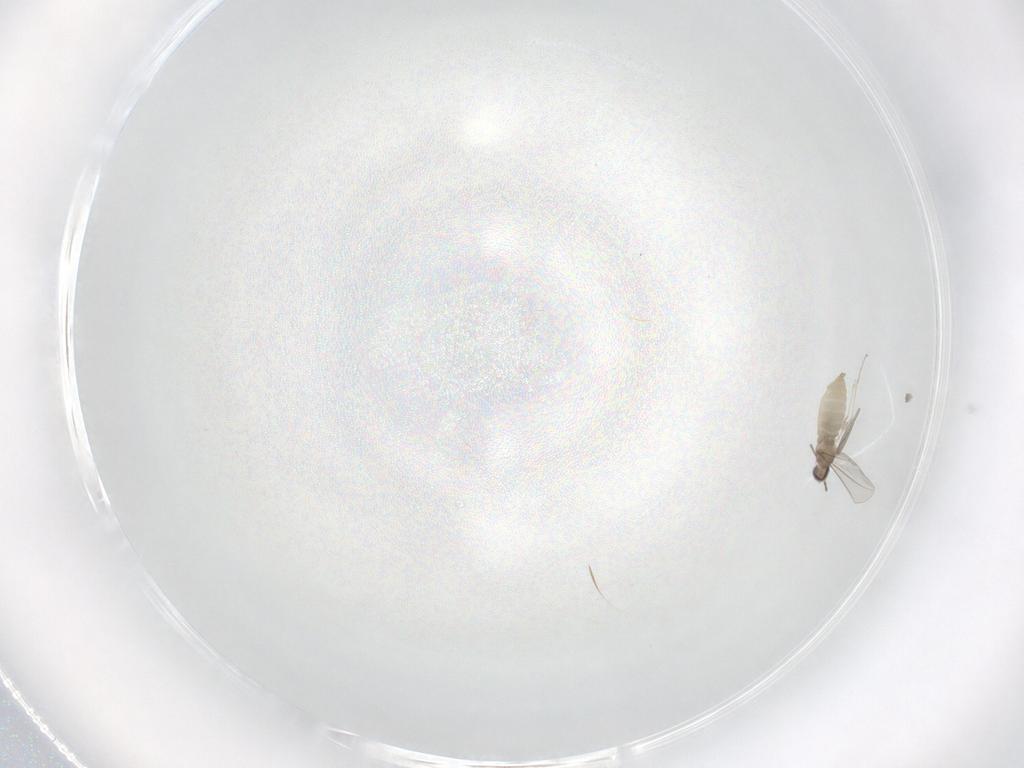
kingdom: Animalia
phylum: Arthropoda
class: Insecta
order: Diptera
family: Cecidomyiidae
